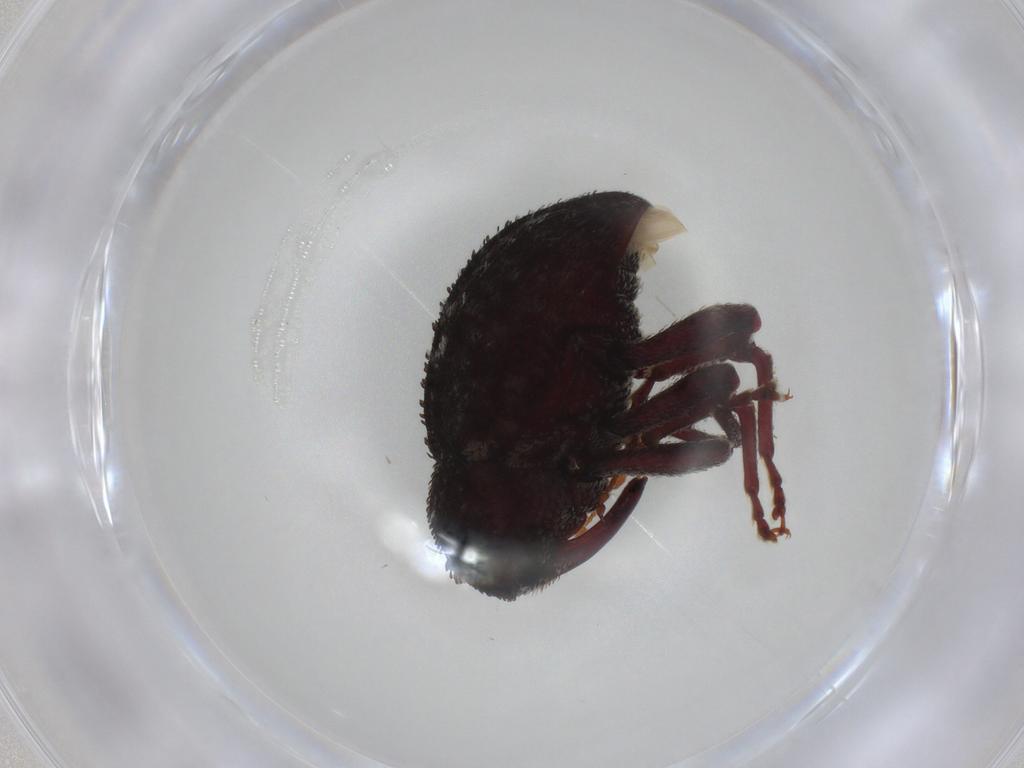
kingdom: Animalia
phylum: Arthropoda
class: Insecta
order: Coleoptera
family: Curculionidae
